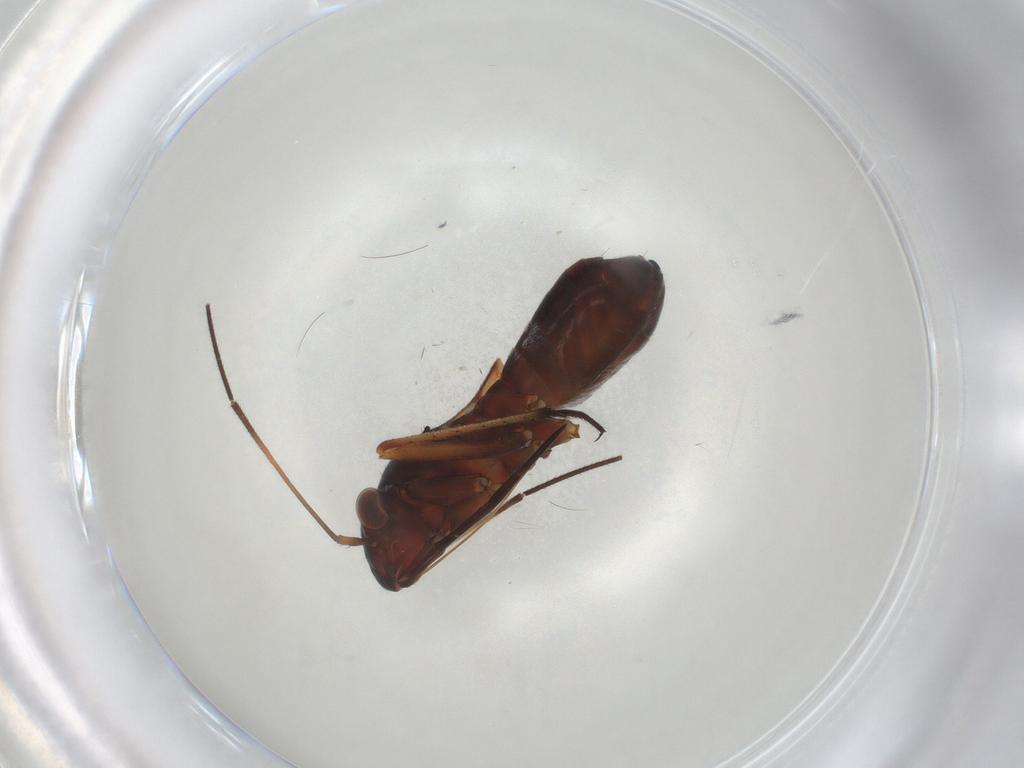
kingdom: Animalia
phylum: Arthropoda
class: Insecta
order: Hemiptera
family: Miridae
